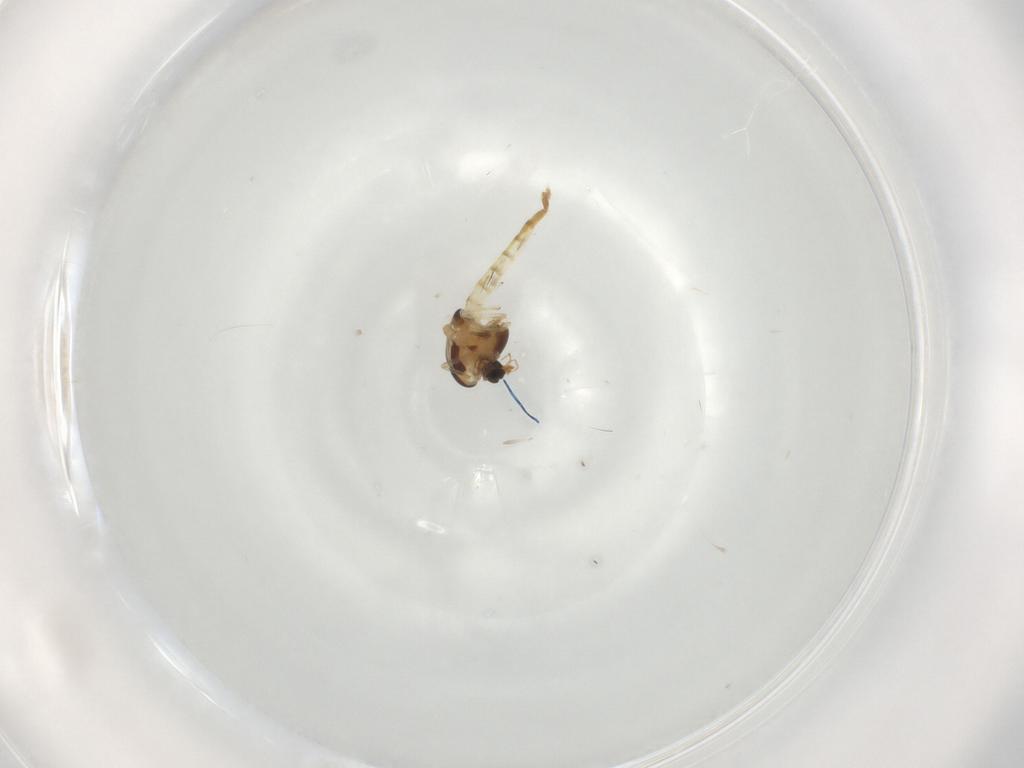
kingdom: Animalia
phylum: Arthropoda
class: Insecta
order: Diptera
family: Chironomidae
